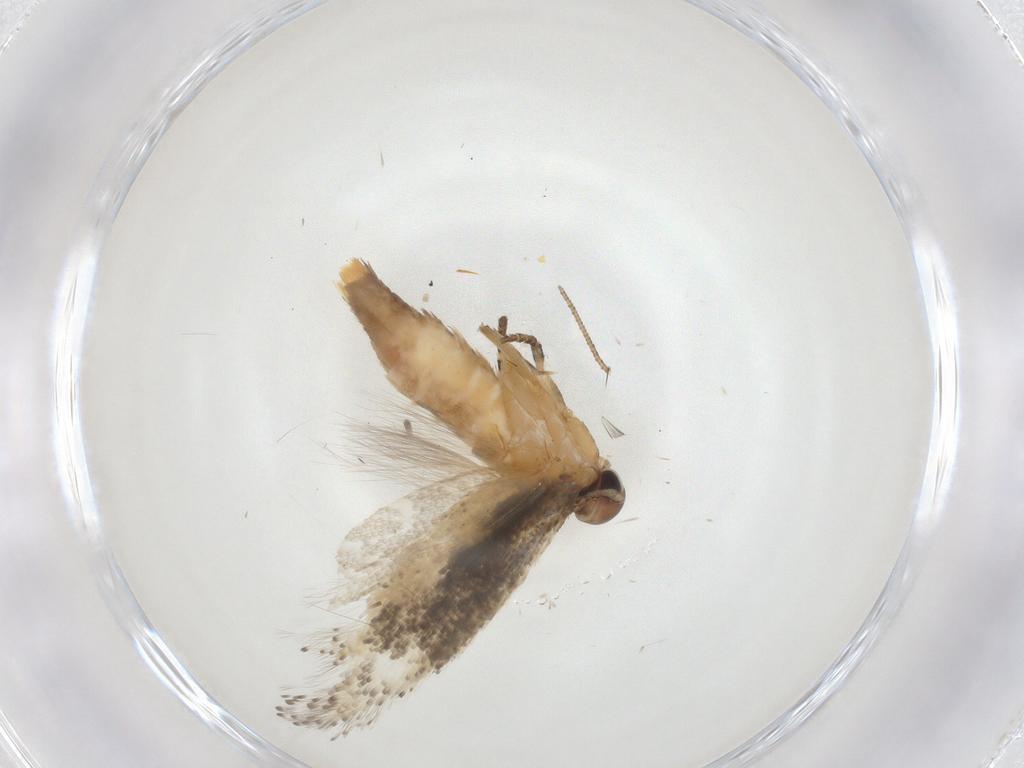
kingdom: Animalia
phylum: Arthropoda
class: Insecta
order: Lepidoptera
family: Gelechiidae
